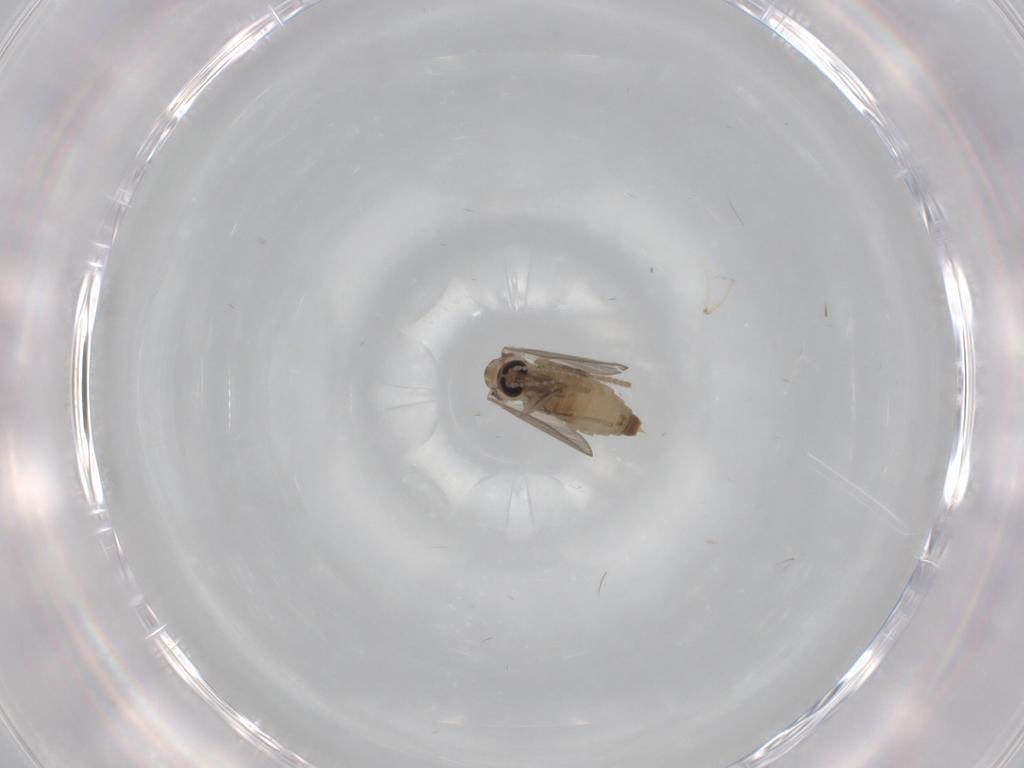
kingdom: Animalia
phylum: Arthropoda
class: Insecta
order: Diptera
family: Psychodidae
